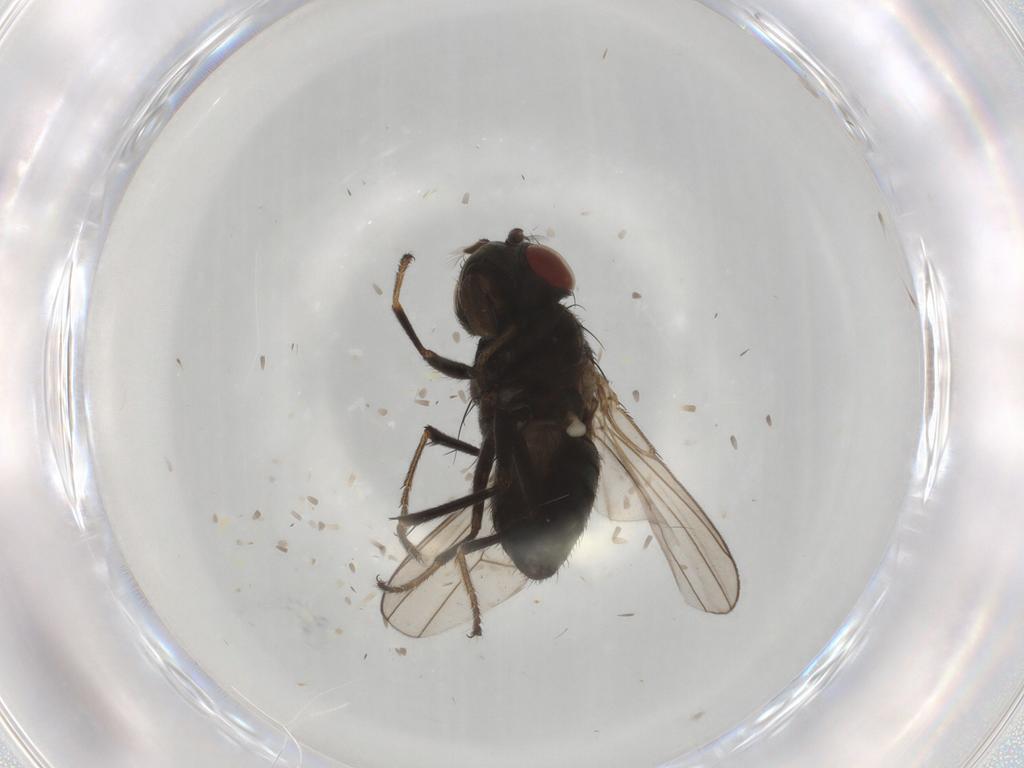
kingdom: Animalia
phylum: Arthropoda
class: Insecta
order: Diptera
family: Ephydridae
